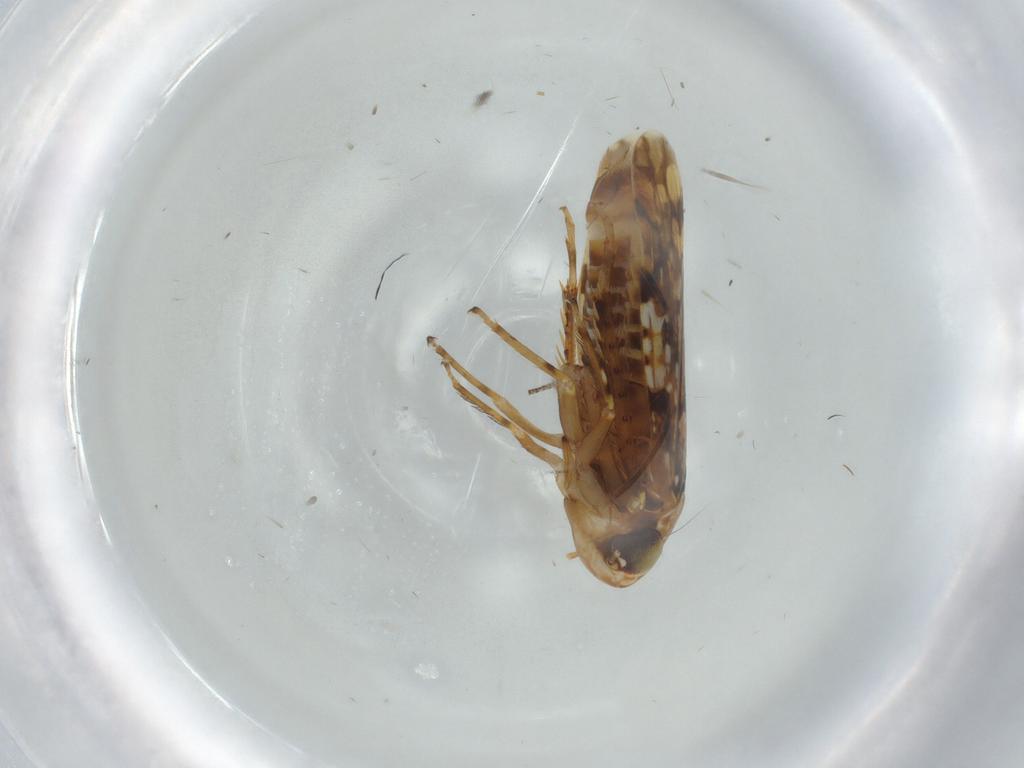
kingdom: Animalia
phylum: Arthropoda
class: Insecta
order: Hemiptera
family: Cicadellidae
